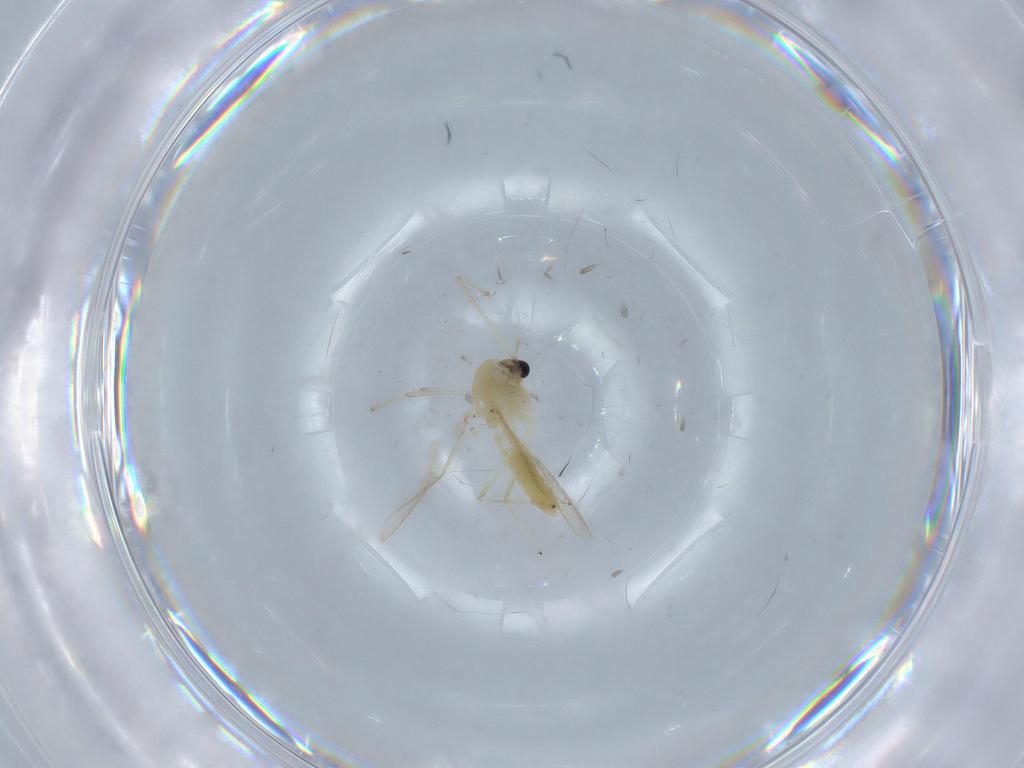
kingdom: Animalia
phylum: Arthropoda
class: Insecta
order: Diptera
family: Chironomidae
